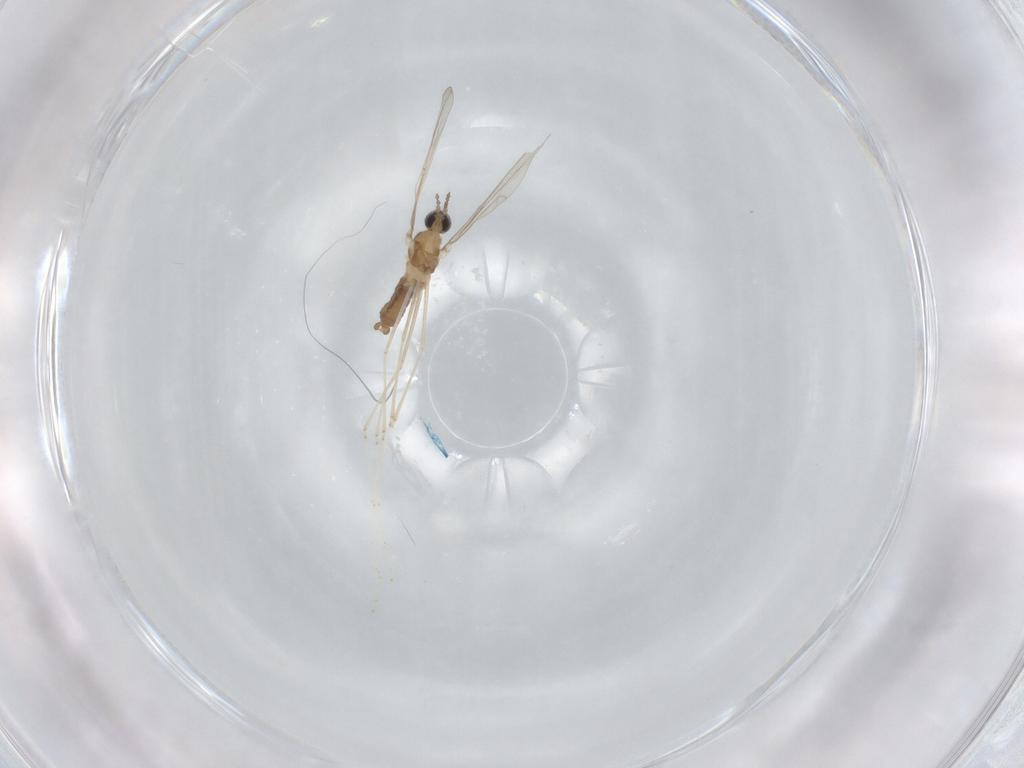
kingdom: Animalia
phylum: Arthropoda
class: Insecta
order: Diptera
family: Cecidomyiidae
